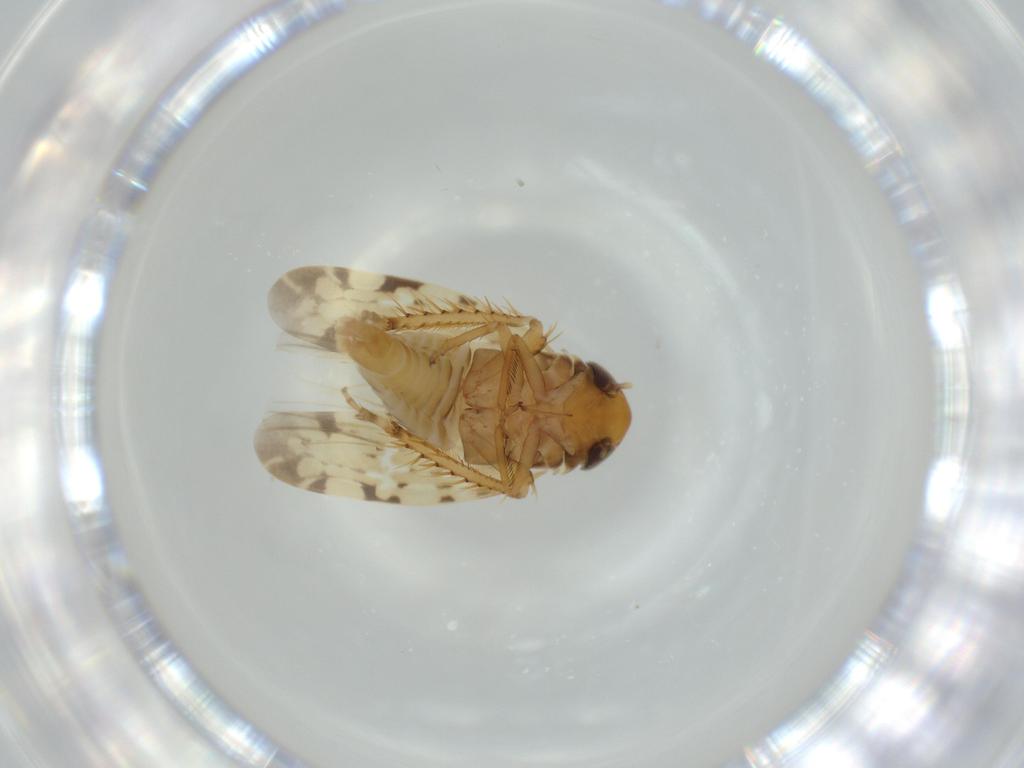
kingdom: Animalia
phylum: Arthropoda
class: Insecta
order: Hemiptera
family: Cicadellidae
